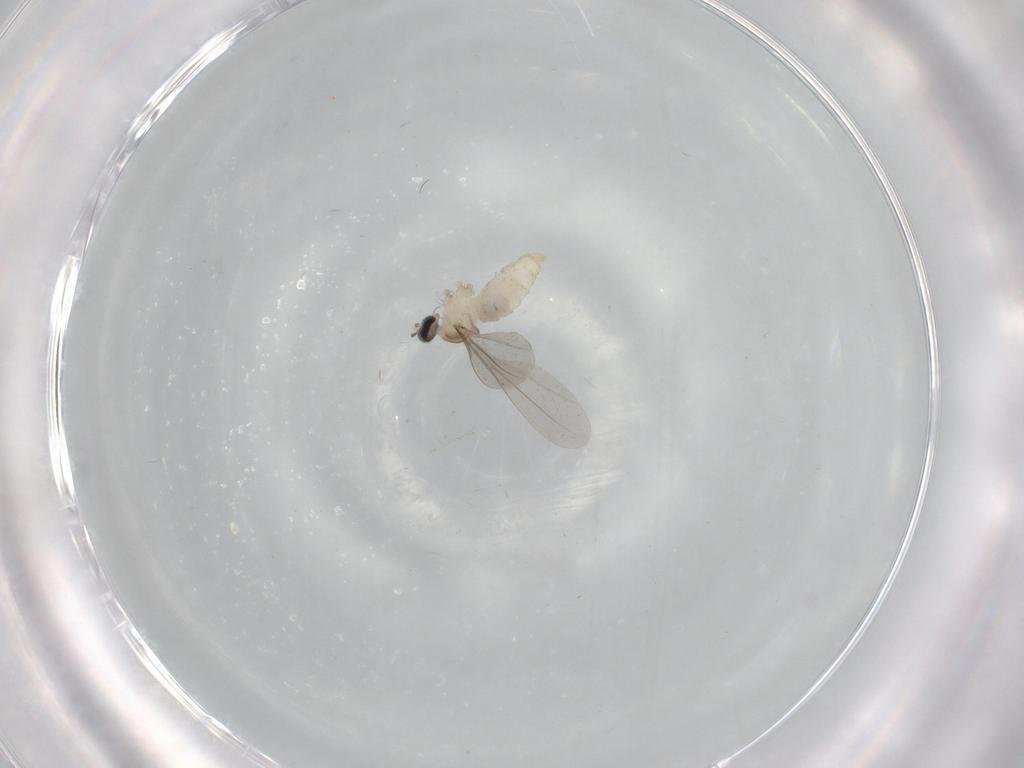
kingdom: Animalia
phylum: Arthropoda
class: Insecta
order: Diptera
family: Cecidomyiidae
